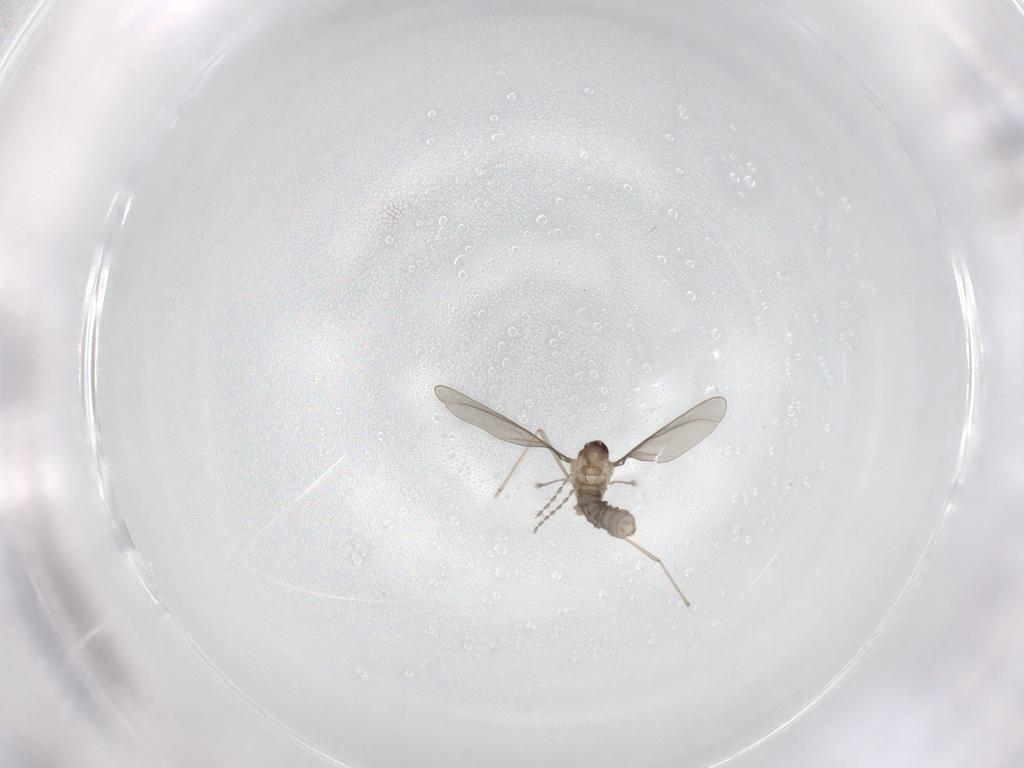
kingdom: Animalia
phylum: Arthropoda
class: Insecta
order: Diptera
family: Cecidomyiidae
